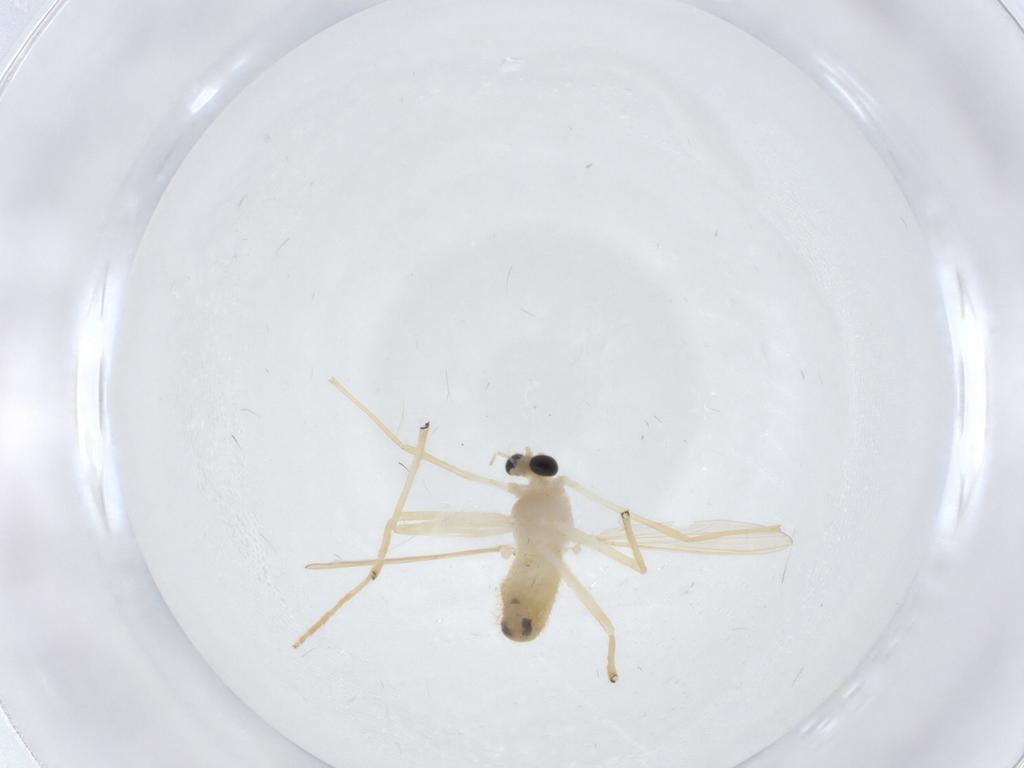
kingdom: Animalia
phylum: Arthropoda
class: Insecta
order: Diptera
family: Chironomidae
